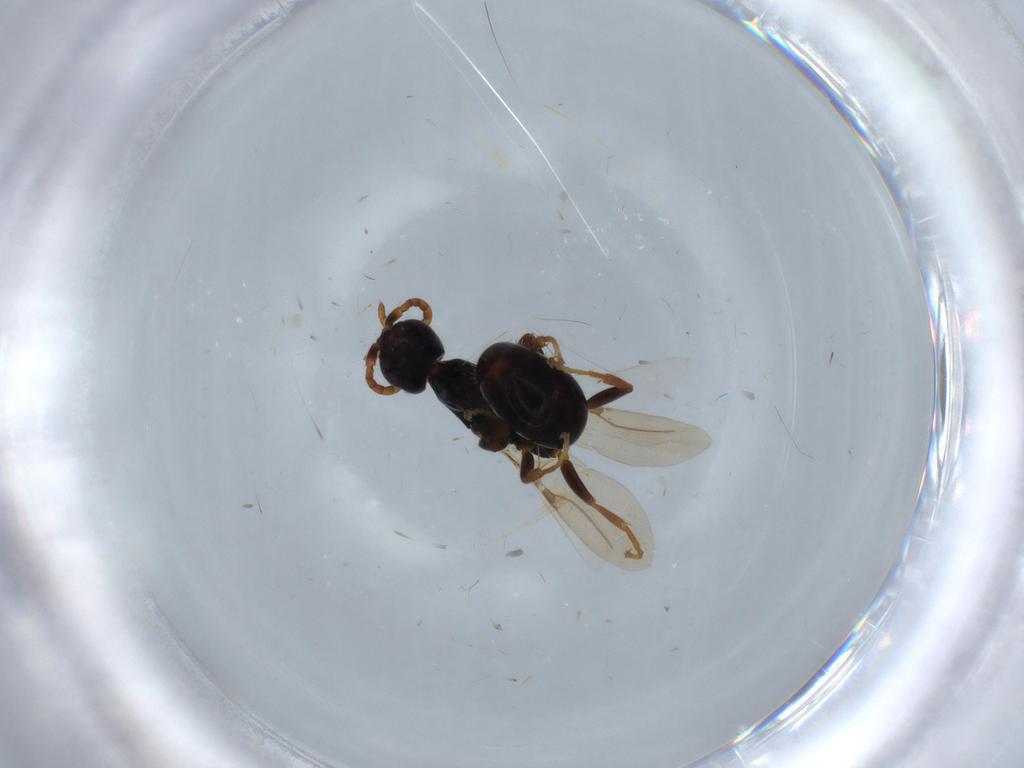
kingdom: Animalia
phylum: Arthropoda
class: Insecta
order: Hymenoptera
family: Bethylidae
